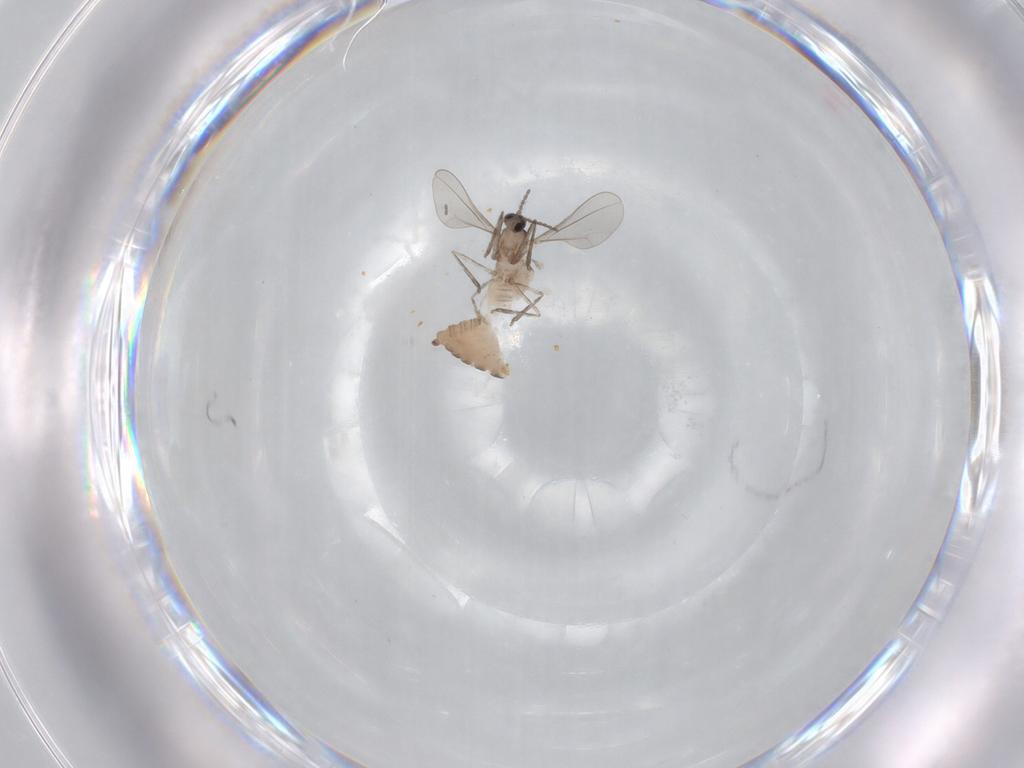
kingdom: Animalia
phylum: Arthropoda
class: Insecta
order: Diptera
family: Cecidomyiidae
